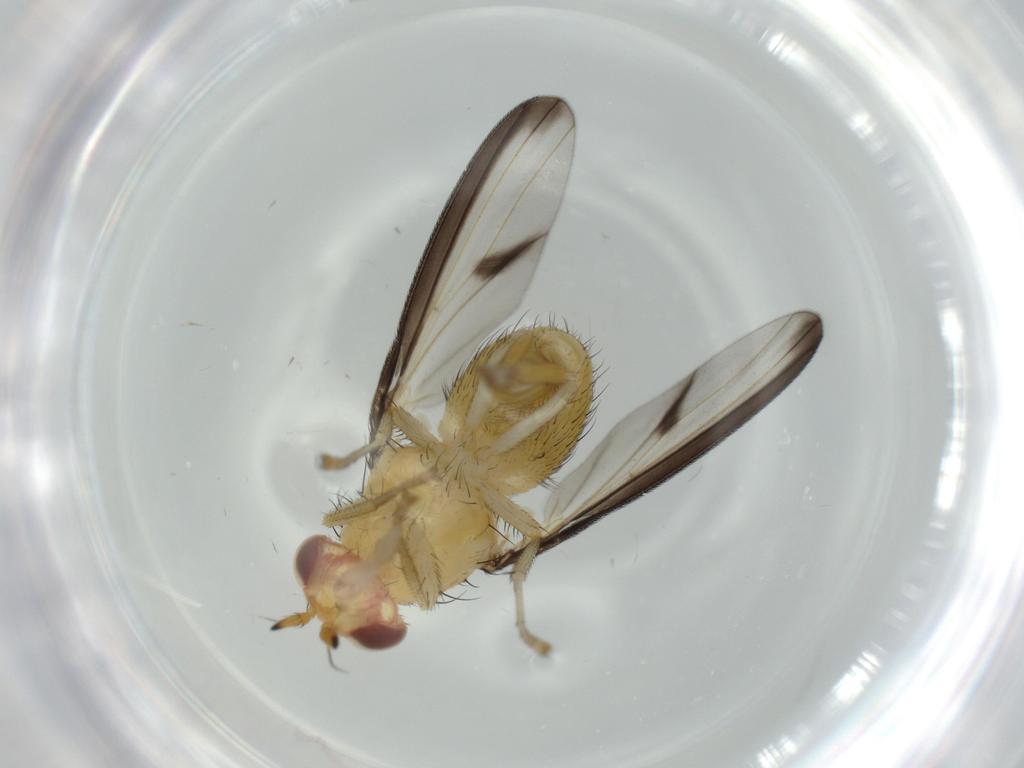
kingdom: Animalia
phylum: Arthropoda
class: Insecta
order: Diptera
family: Lauxaniidae
